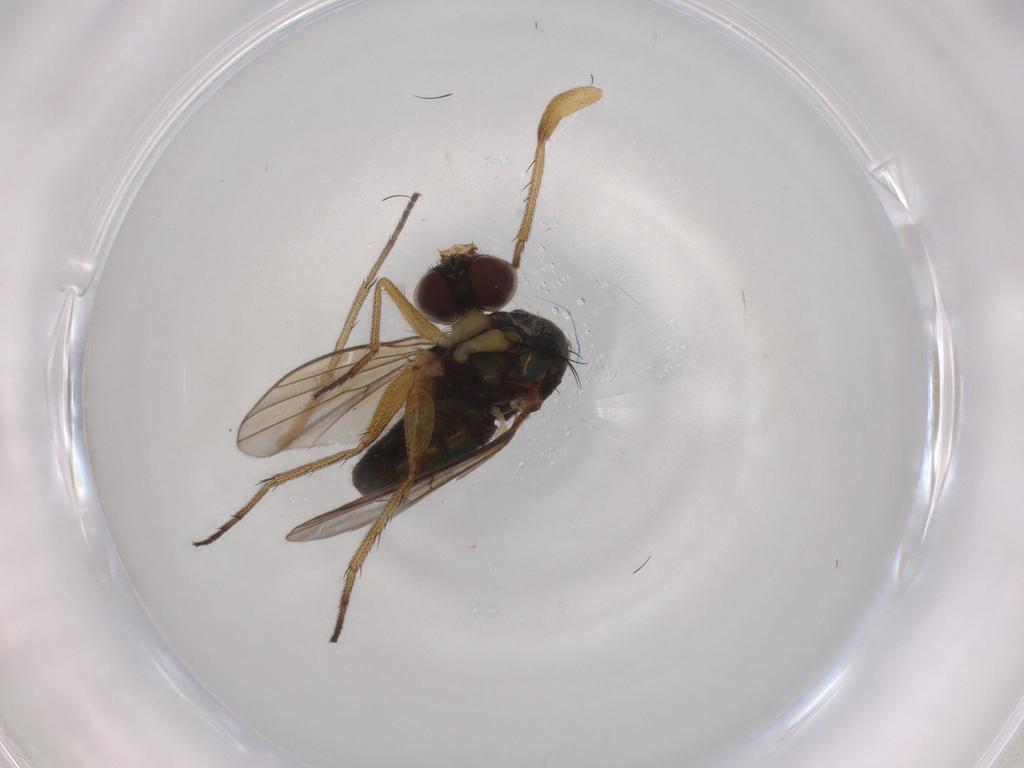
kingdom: Animalia
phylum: Arthropoda
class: Insecta
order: Diptera
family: Dolichopodidae
